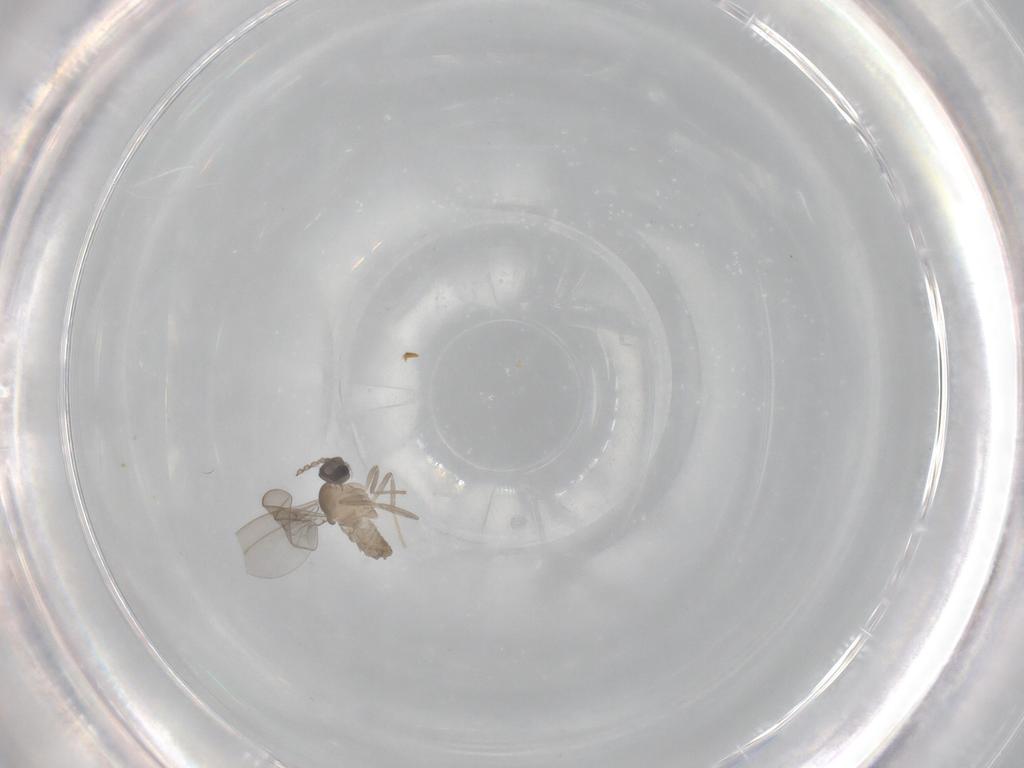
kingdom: Animalia
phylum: Arthropoda
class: Insecta
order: Diptera
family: Cecidomyiidae
